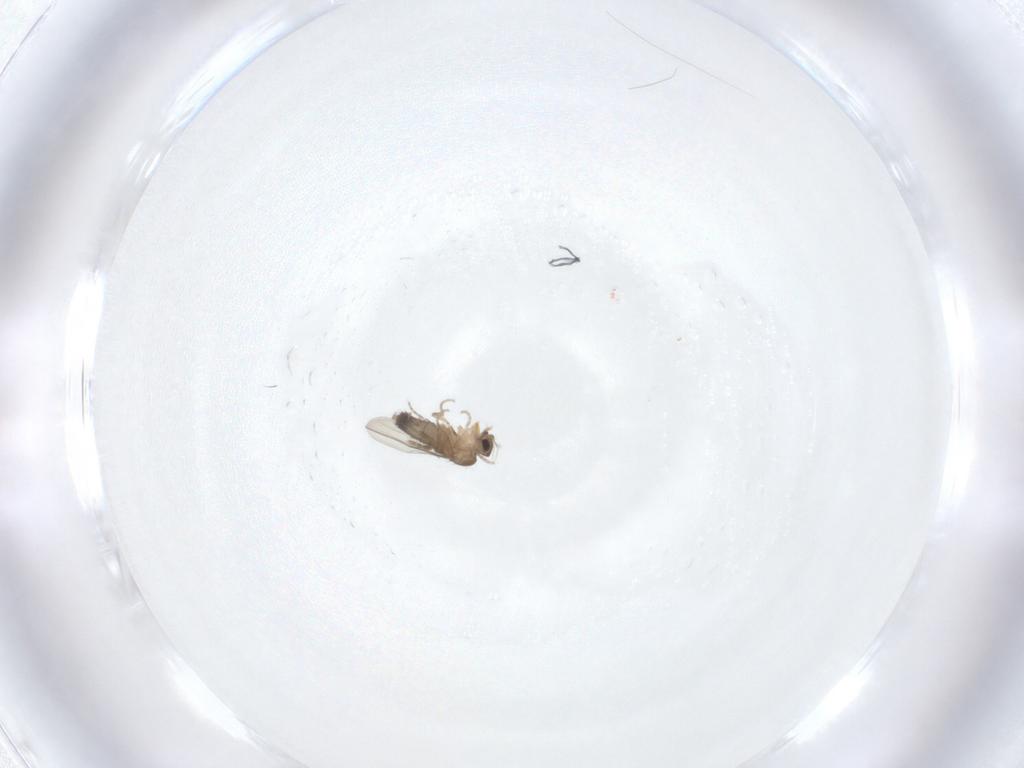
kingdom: Animalia
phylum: Arthropoda
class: Insecta
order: Diptera
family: Phoridae
